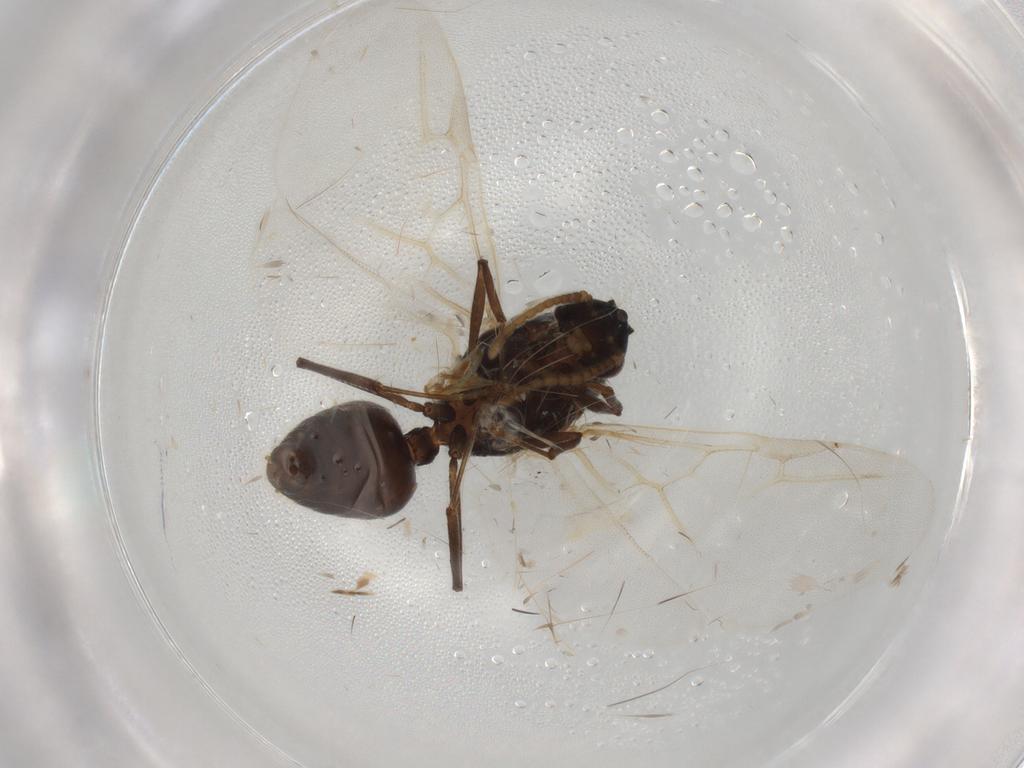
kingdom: Animalia
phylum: Arthropoda
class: Insecta
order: Hymenoptera
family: Formicidae
